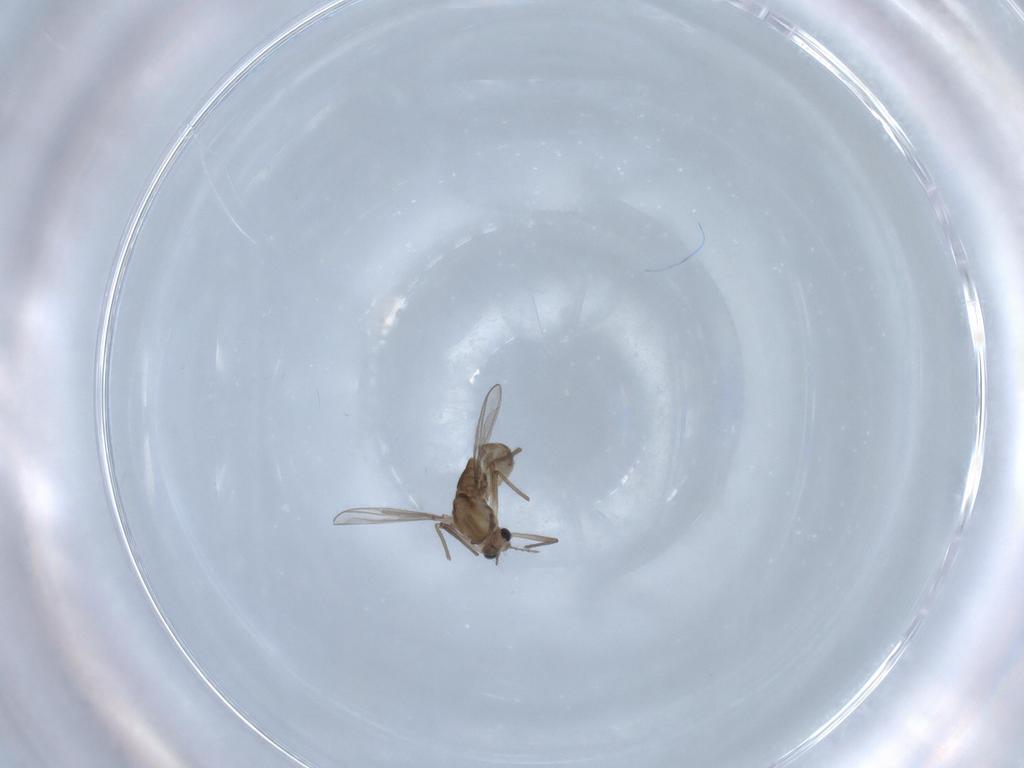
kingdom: Animalia
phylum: Arthropoda
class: Insecta
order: Diptera
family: Chironomidae
